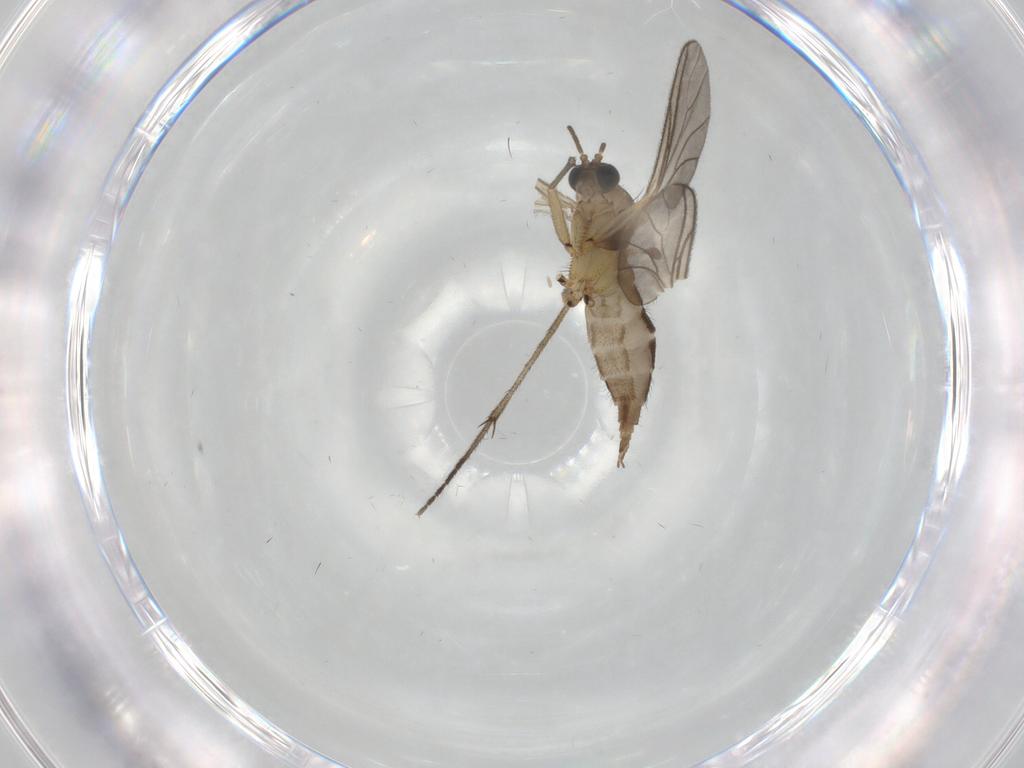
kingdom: Animalia
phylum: Arthropoda
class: Insecta
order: Diptera
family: Sciaridae
